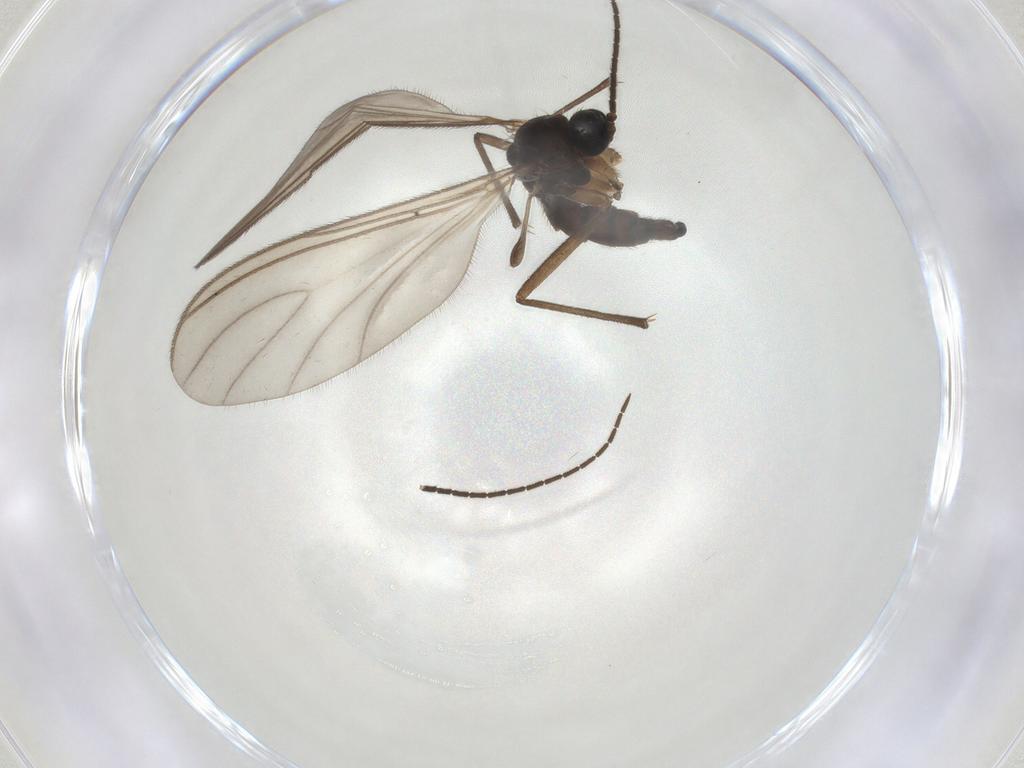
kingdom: Animalia
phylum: Arthropoda
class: Insecta
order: Diptera
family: Sciaridae
